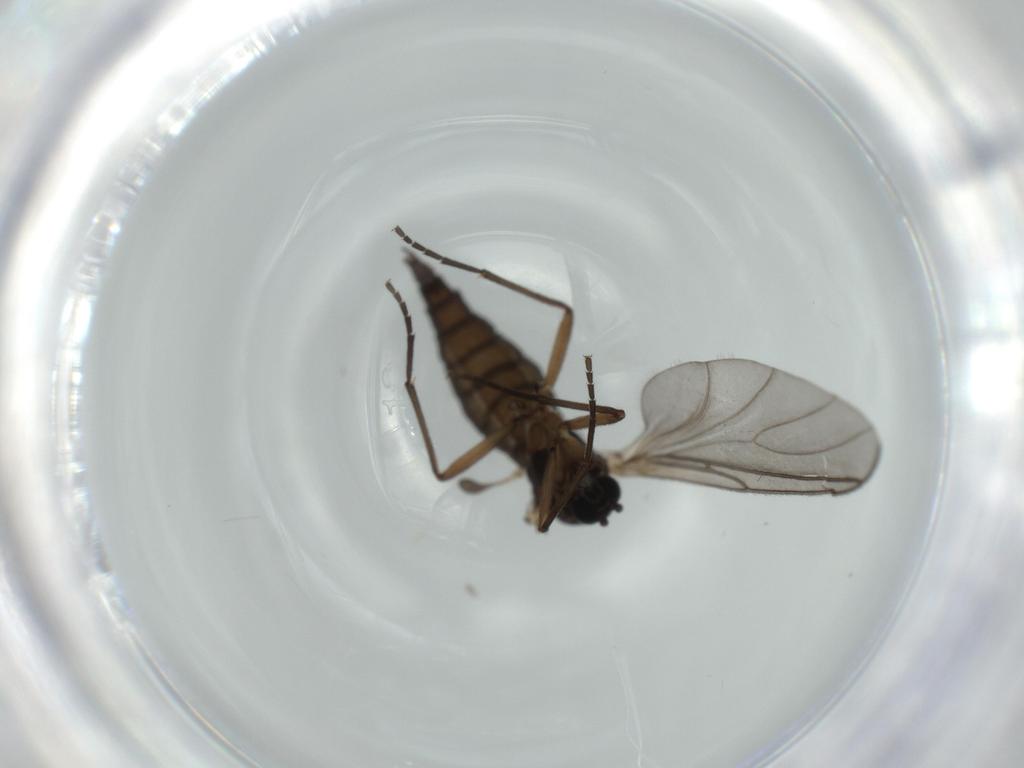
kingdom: Animalia
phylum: Arthropoda
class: Insecta
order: Diptera
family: Sciaridae
